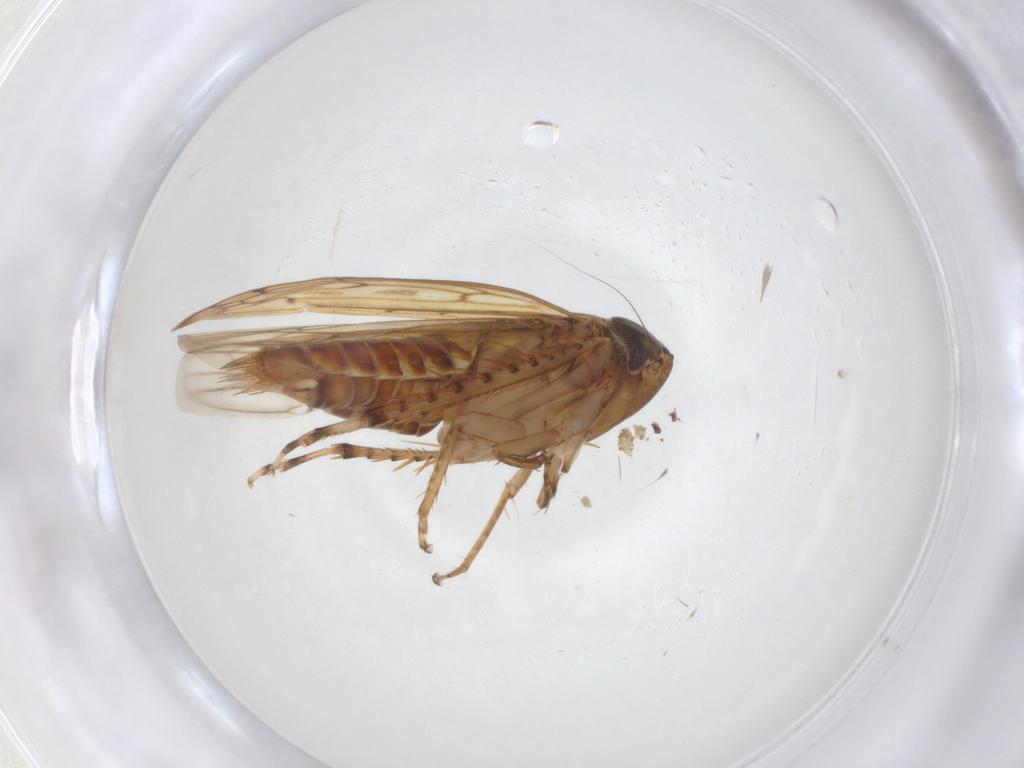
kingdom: Animalia
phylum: Arthropoda
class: Insecta
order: Hemiptera
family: Cicadellidae
